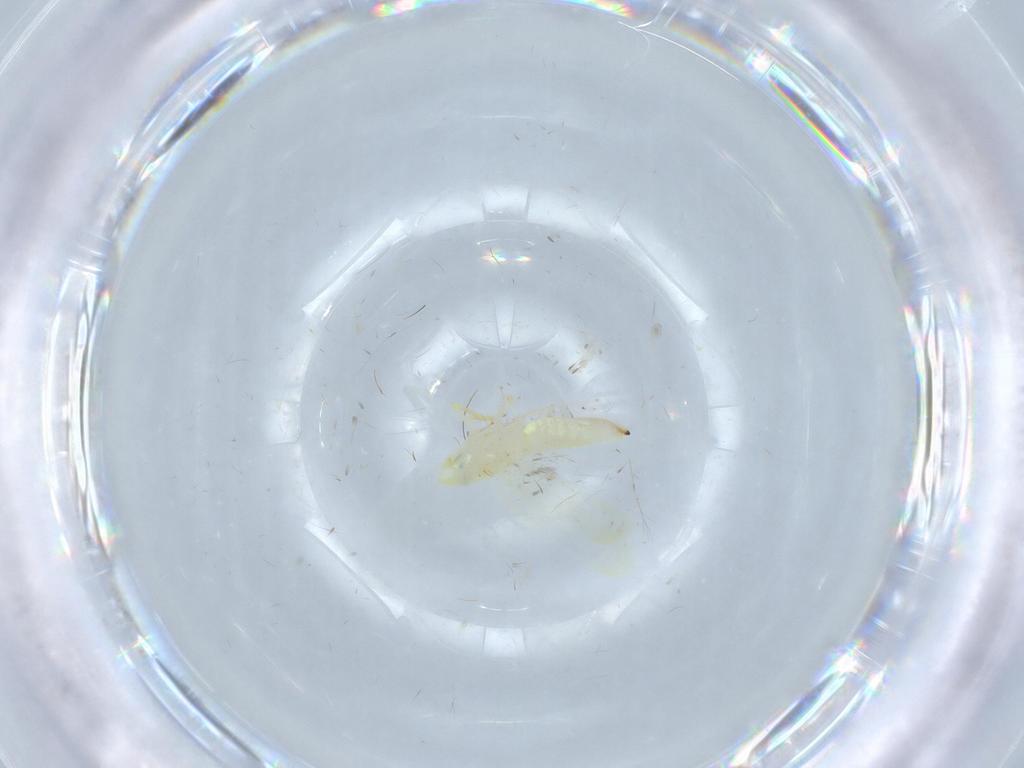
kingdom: Animalia
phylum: Arthropoda
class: Insecta
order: Hemiptera
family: Cicadellidae
